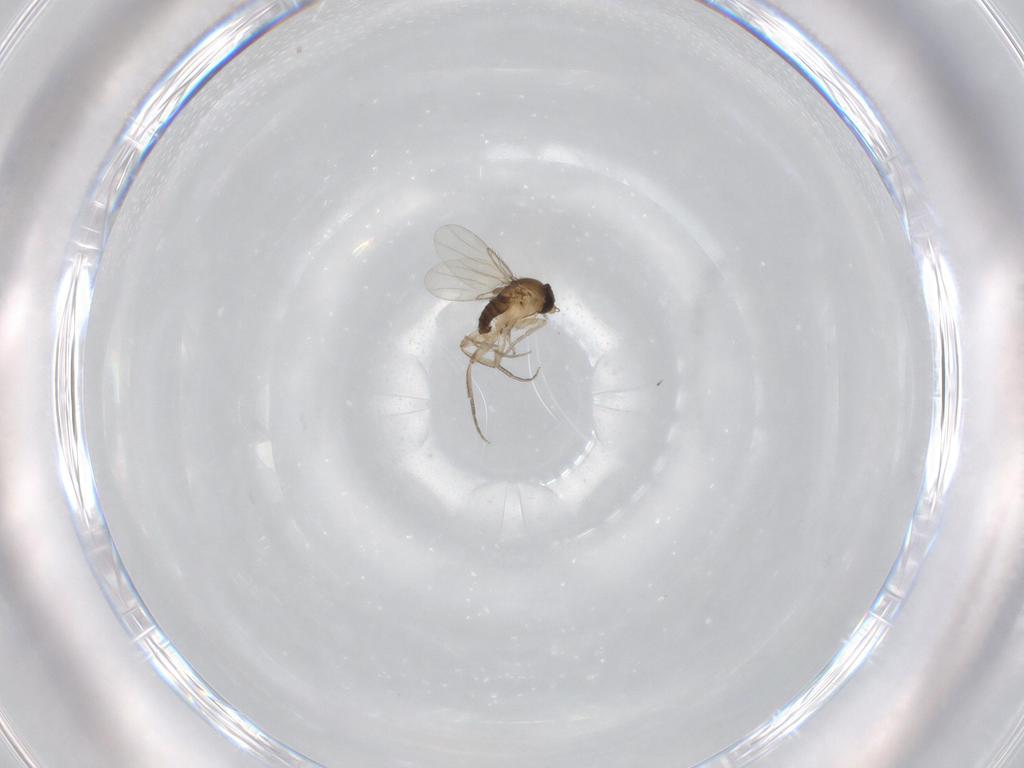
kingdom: Animalia
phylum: Arthropoda
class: Insecta
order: Diptera
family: Phoridae
